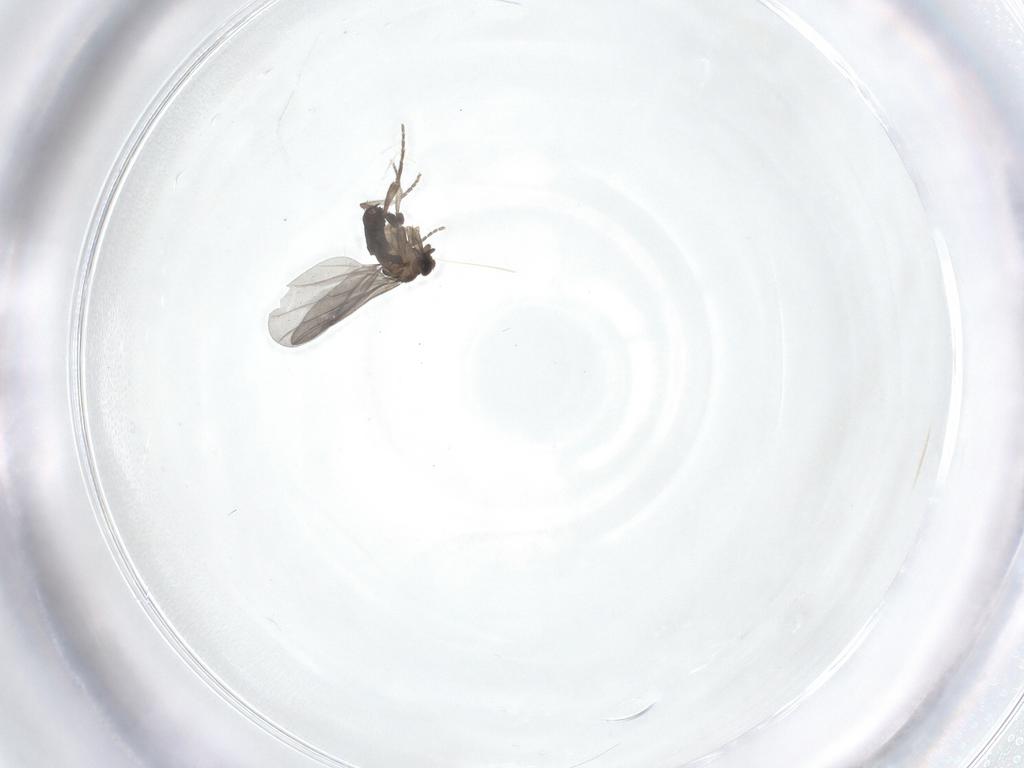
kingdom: Animalia
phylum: Arthropoda
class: Insecta
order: Diptera
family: Phoridae
